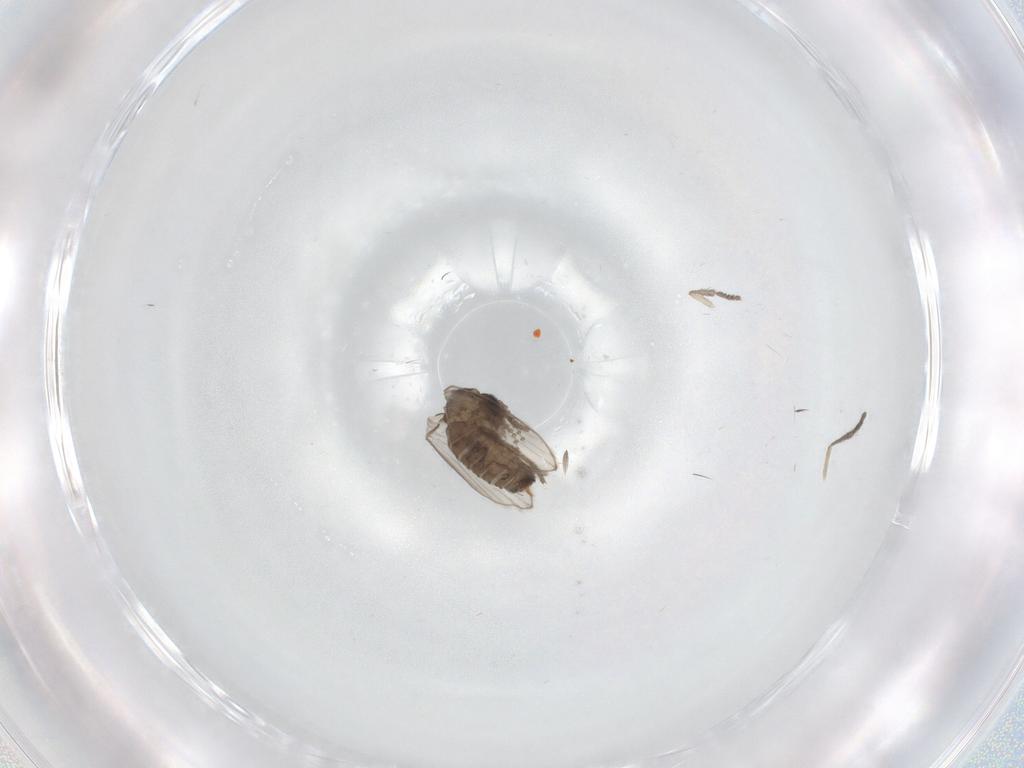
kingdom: Animalia
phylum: Arthropoda
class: Insecta
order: Diptera
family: Psychodidae
